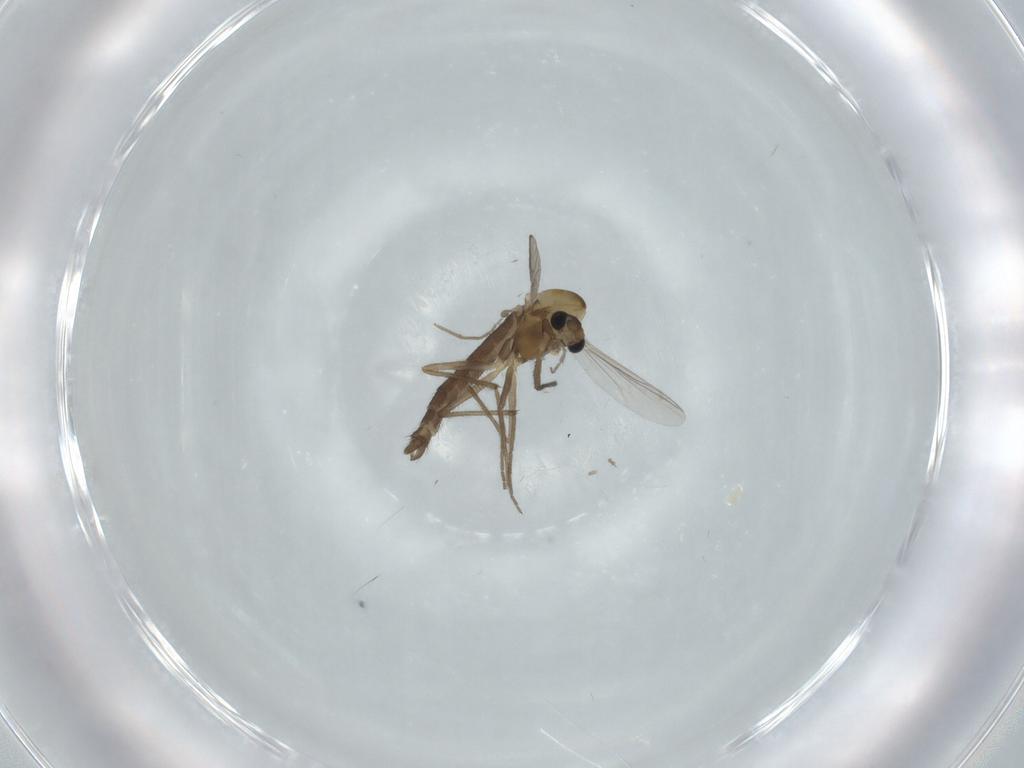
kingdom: Animalia
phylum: Arthropoda
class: Insecta
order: Diptera
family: Chironomidae
